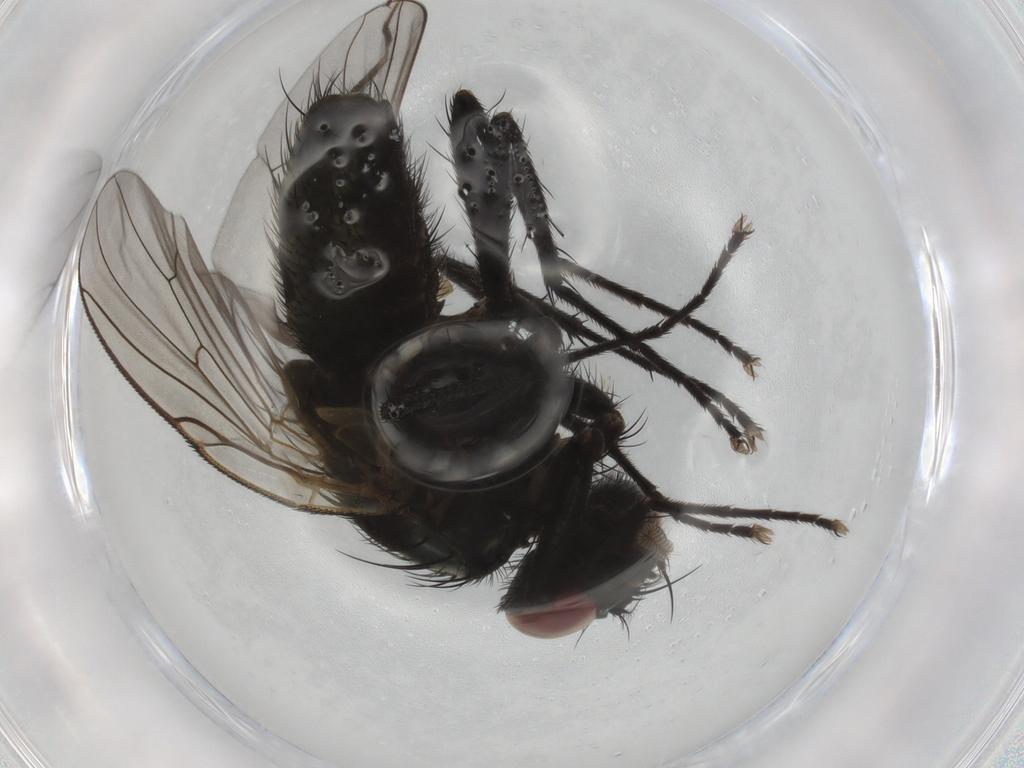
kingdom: Animalia
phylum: Arthropoda
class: Insecta
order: Diptera
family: Muscidae
